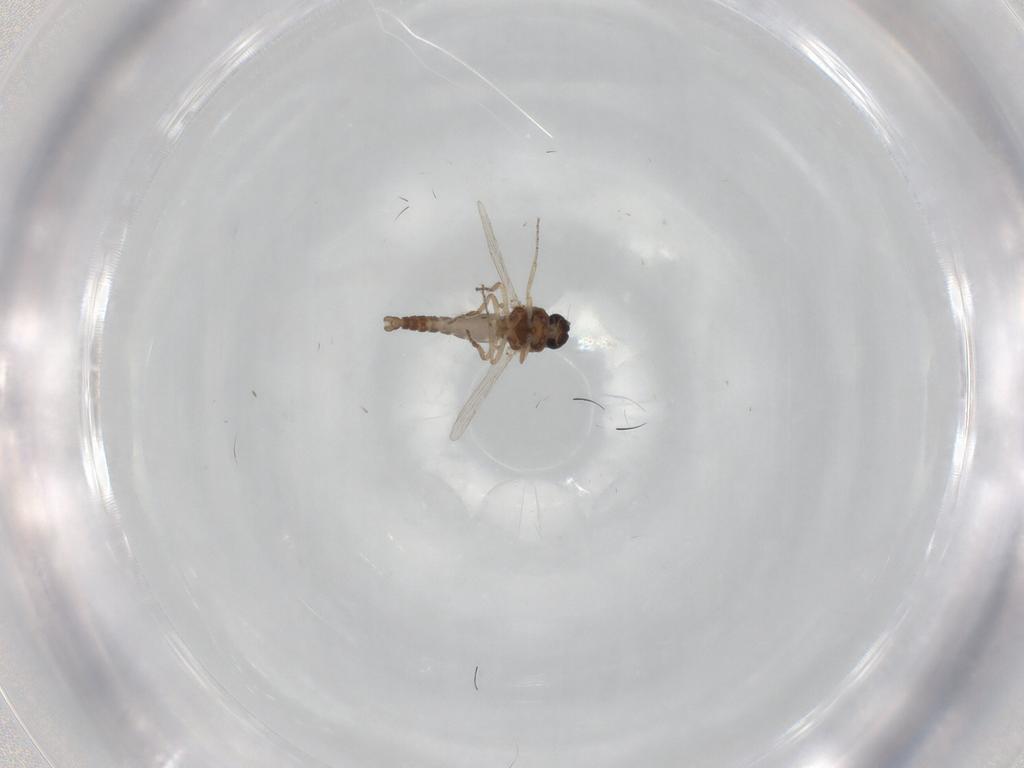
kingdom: Animalia
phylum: Arthropoda
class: Insecta
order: Diptera
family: Ceratopogonidae
